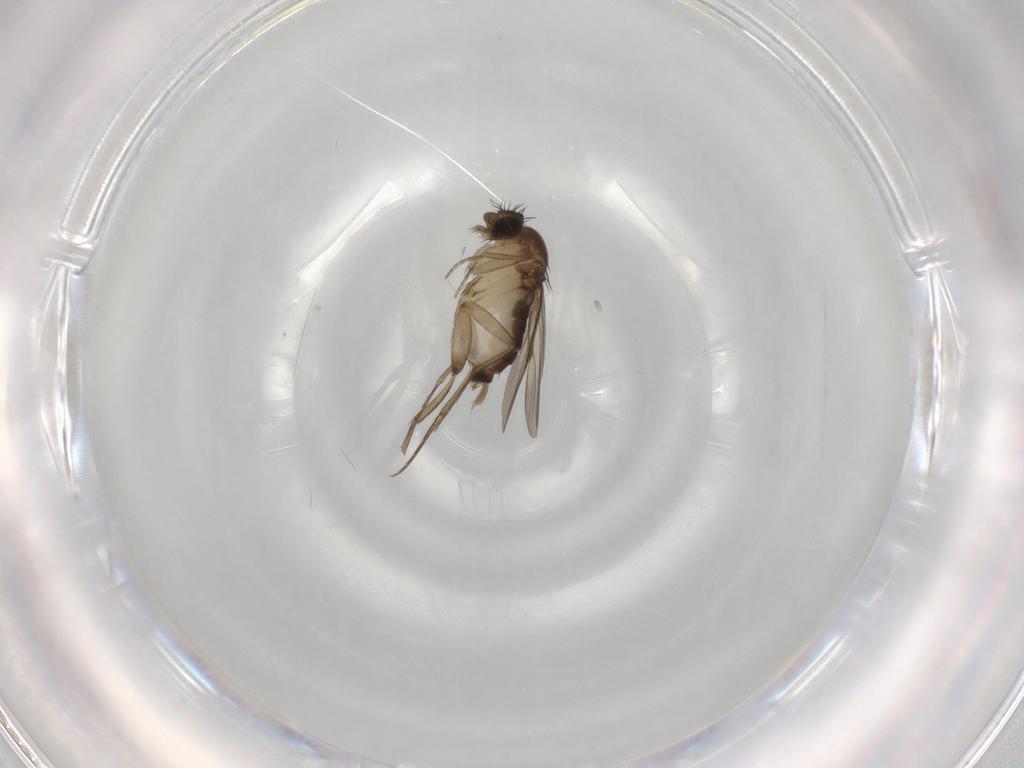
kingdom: Animalia
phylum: Arthropoda
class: Insecta
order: Diptera
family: Phoridae
